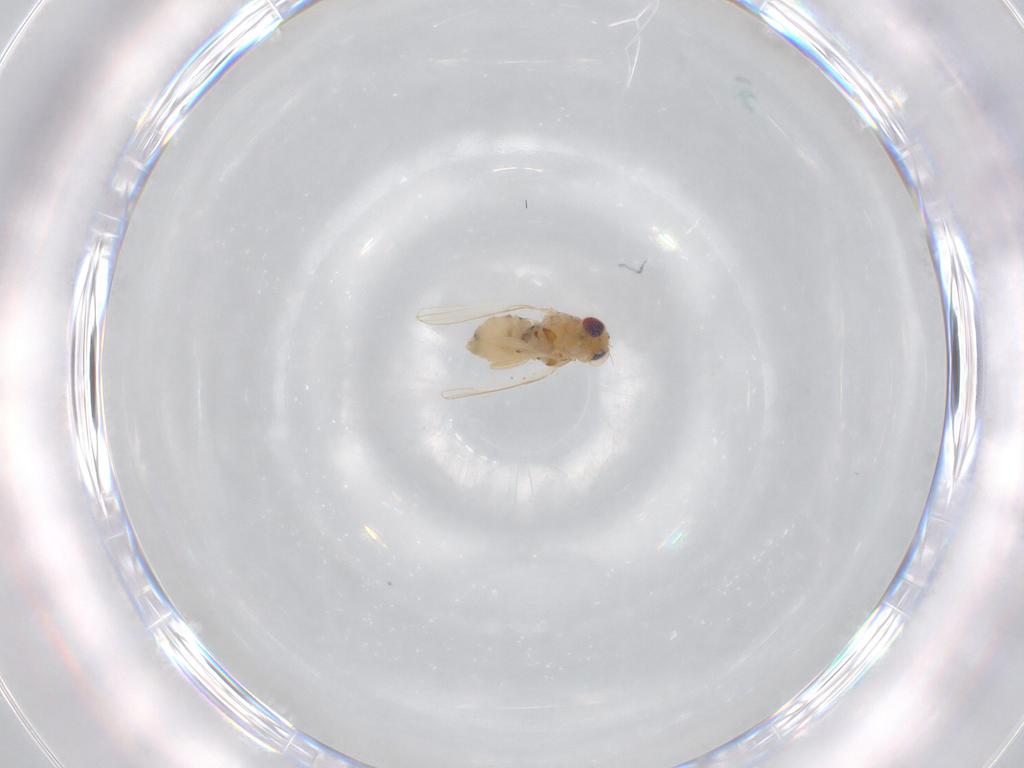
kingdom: Animalia
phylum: Arthropoda
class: Insecta
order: Diptera
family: Chyromyidae
